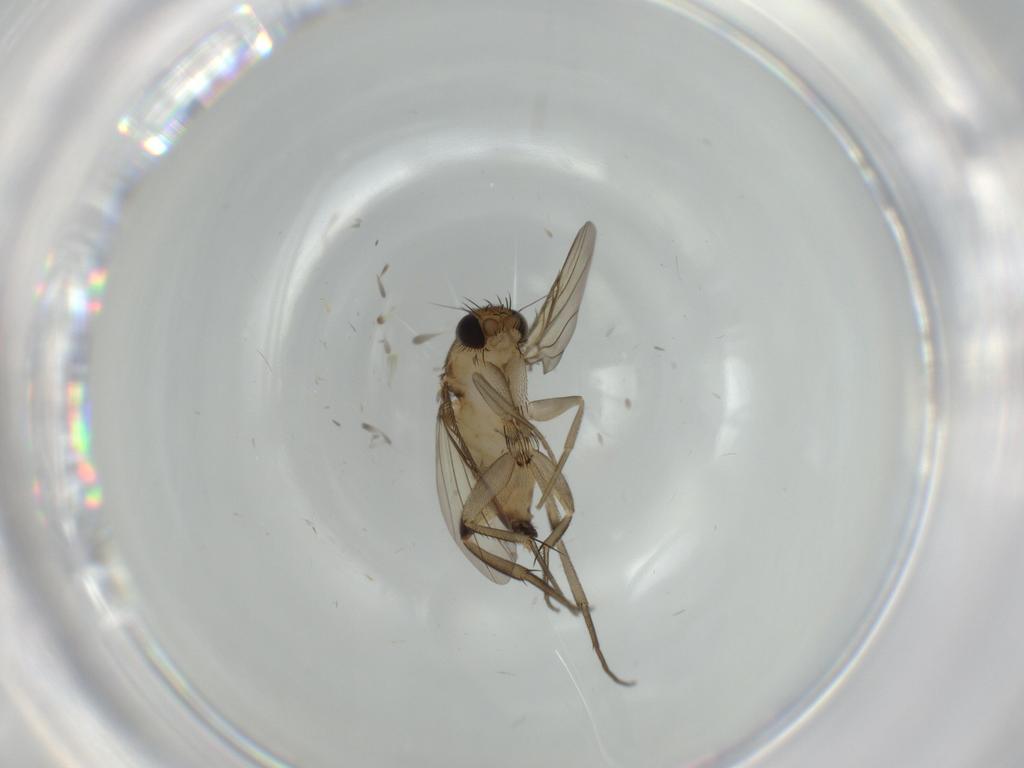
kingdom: Animalia
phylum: Arthropoda
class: Insecta
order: Diptera
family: Phoridae
